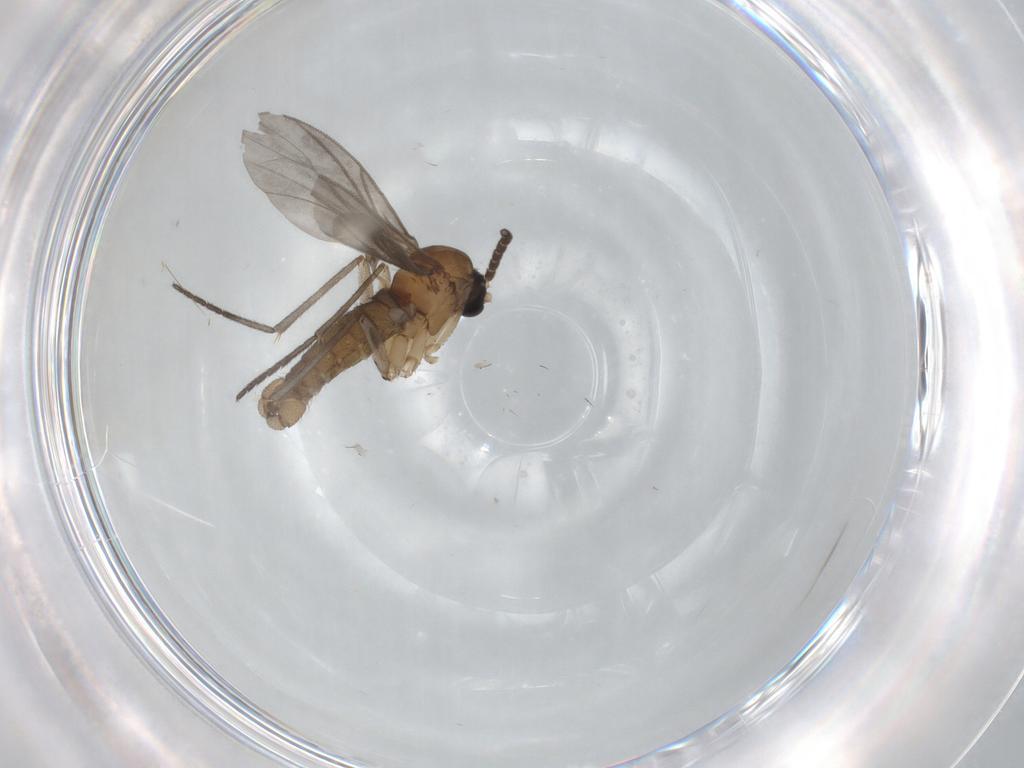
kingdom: Animalia
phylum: Arthropoda
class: Insecta
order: Diptera
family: Sciaridae
